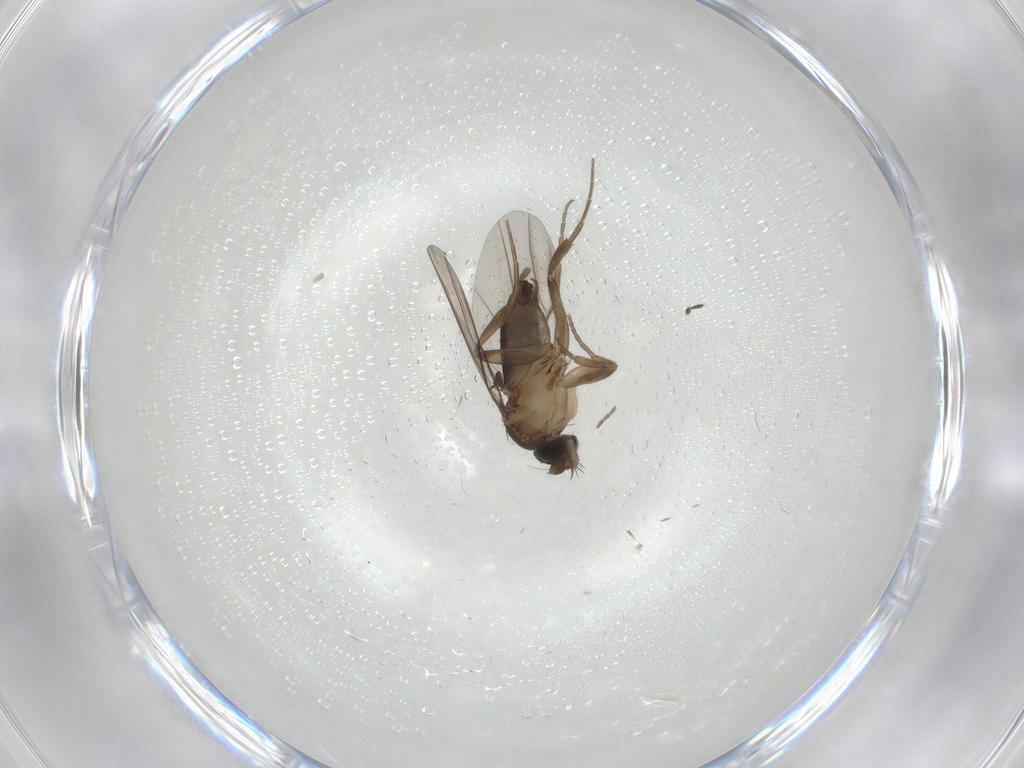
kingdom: Animalia
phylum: Arthropoda
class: Insecta
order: Diptera
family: Phoridae
